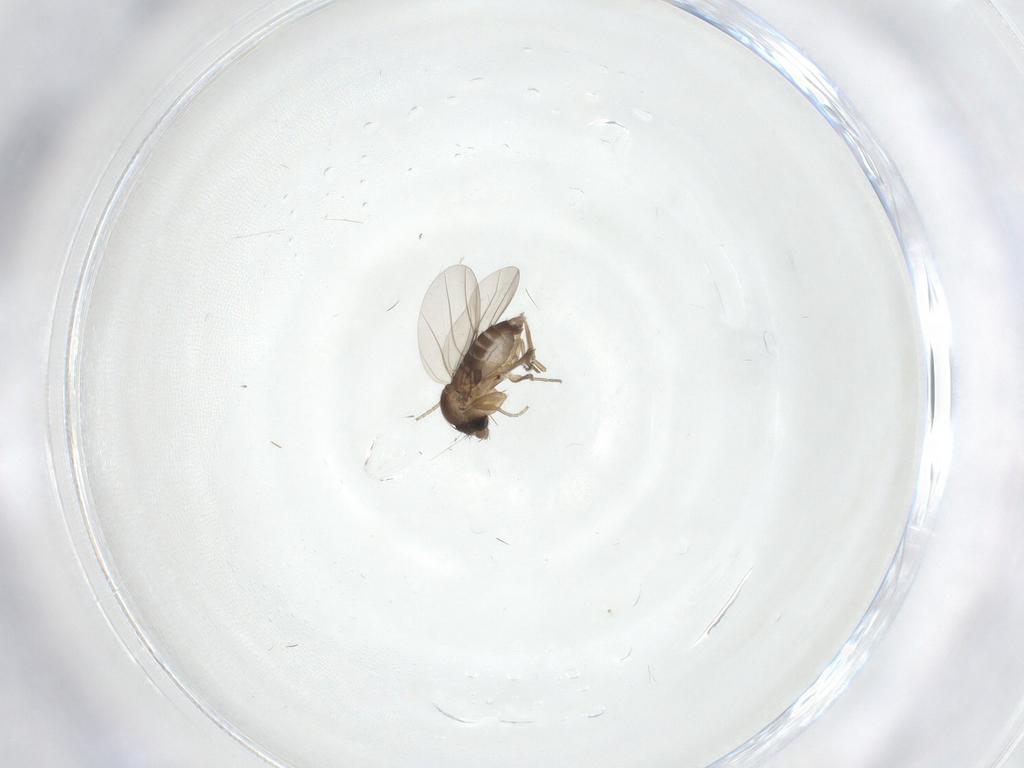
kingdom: Animalia
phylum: Arthropoda
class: Insecta
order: Diptera
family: Phoridae
